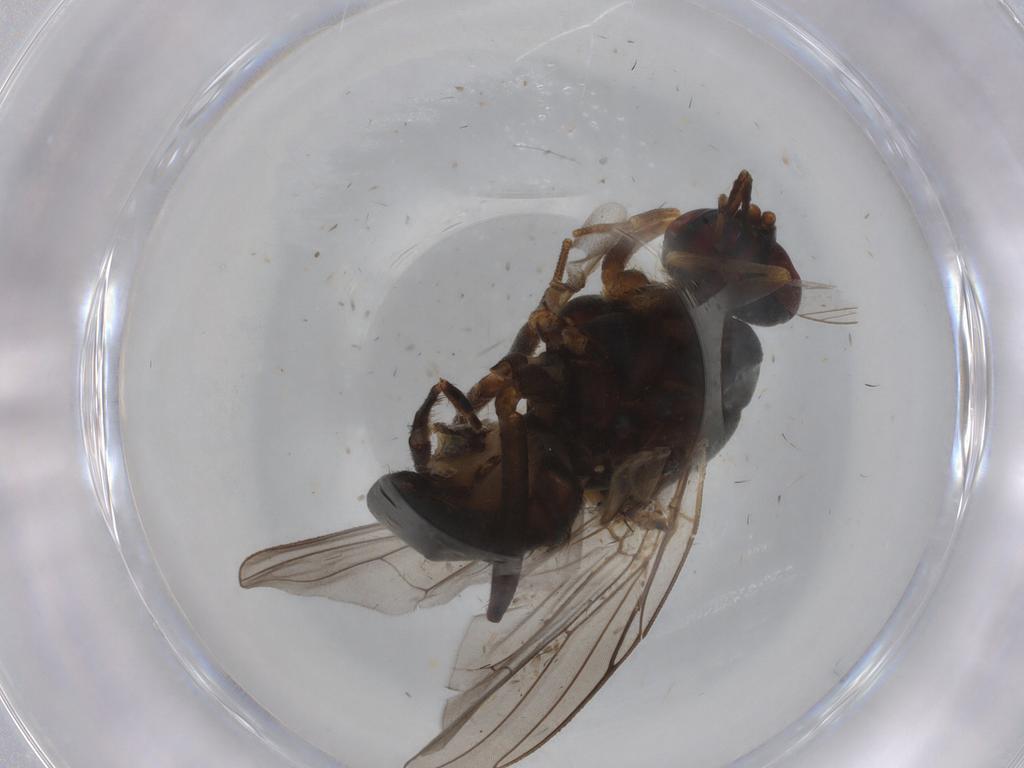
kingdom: Animalia
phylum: Arthropoda
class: Insecta
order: Diptera
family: Calliphoridae
